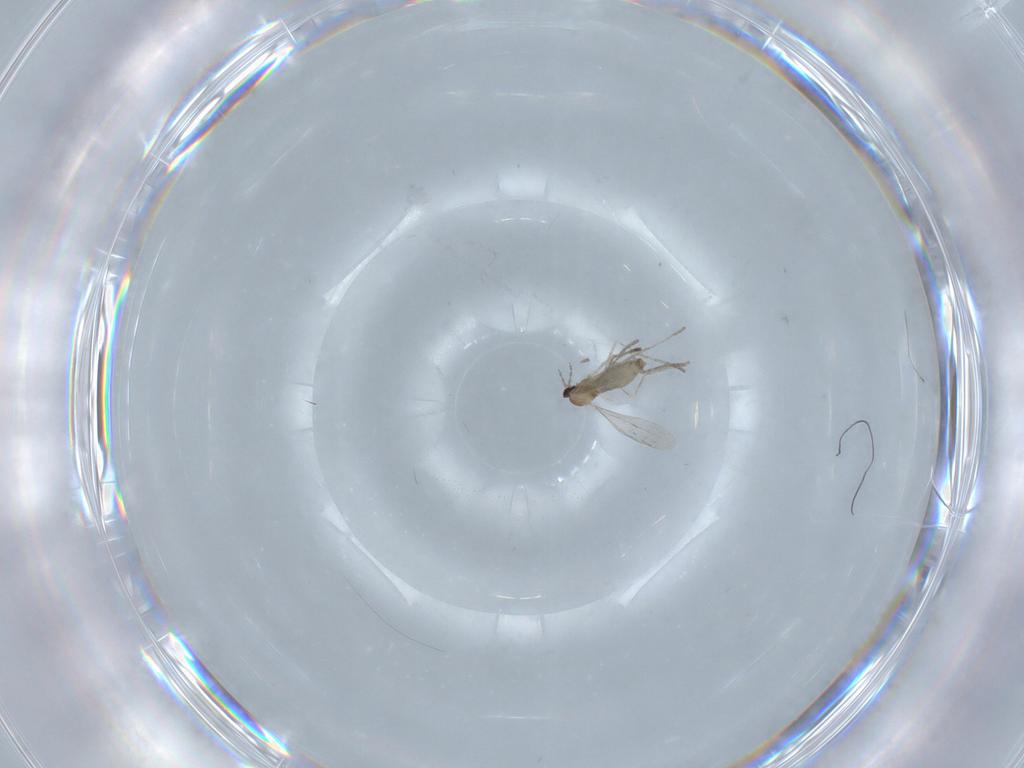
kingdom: Animalia
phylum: Arthropoda
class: Insecta
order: Diptera
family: Cecidomyiidae
